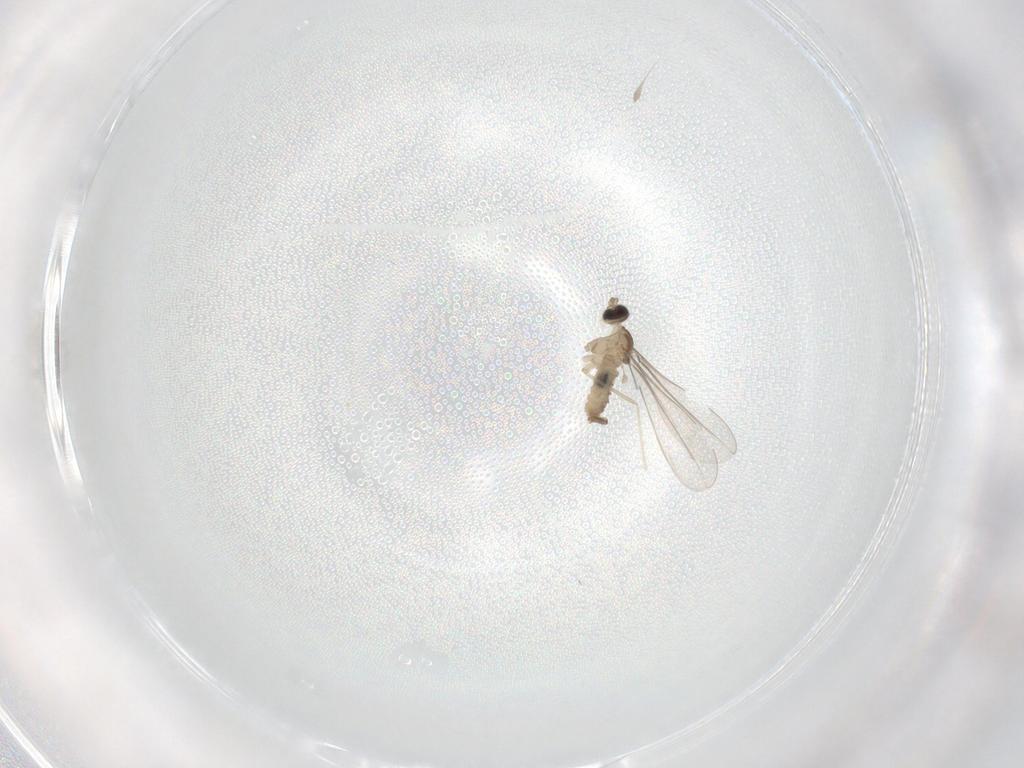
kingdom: Animalia
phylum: Arthropoda
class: Insecta
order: Diptera
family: Cecidomyiidae
